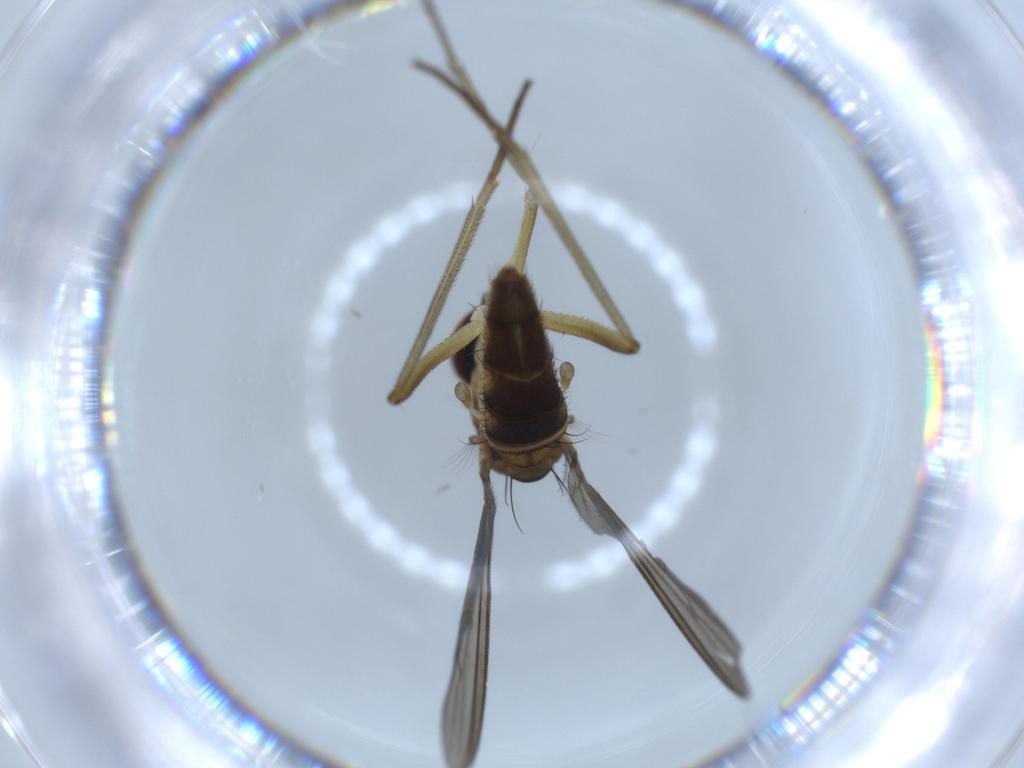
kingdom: Animalia
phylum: Arthropoda
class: Insecta
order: Diptera
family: Dolichopodidae
